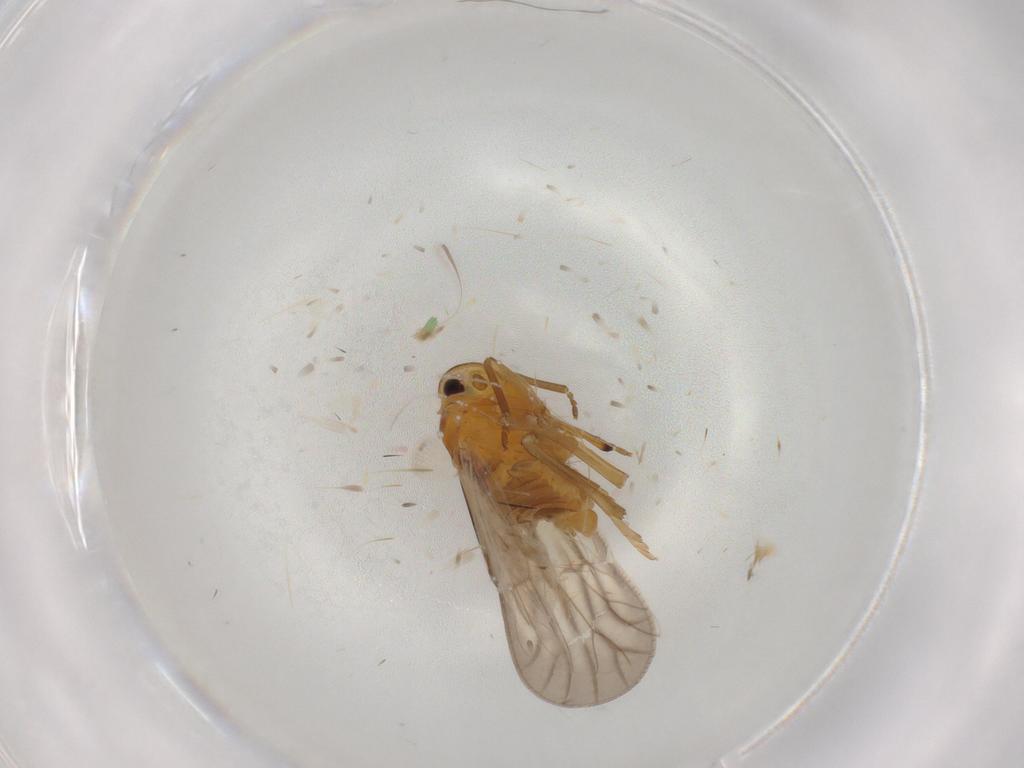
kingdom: Animalia
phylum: Arthropoda
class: Insecta
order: Hemiptera
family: Meenoplidae
